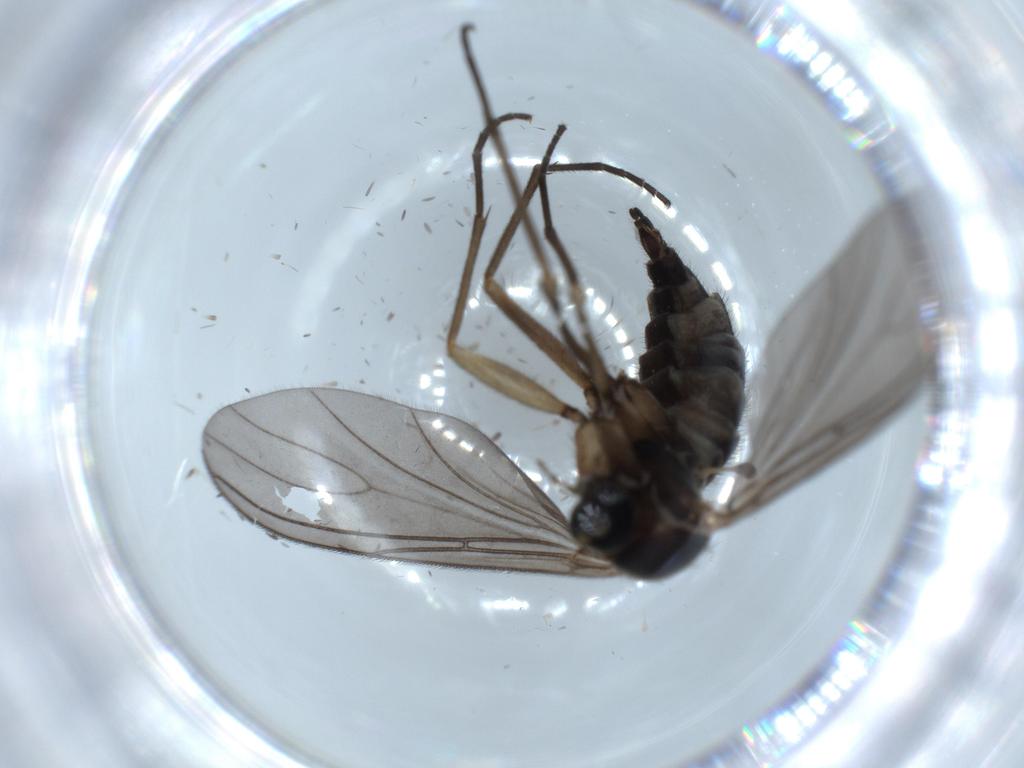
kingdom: Animalia
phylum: Arthropoda
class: Insecta
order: Diptera
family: Sciaridae
